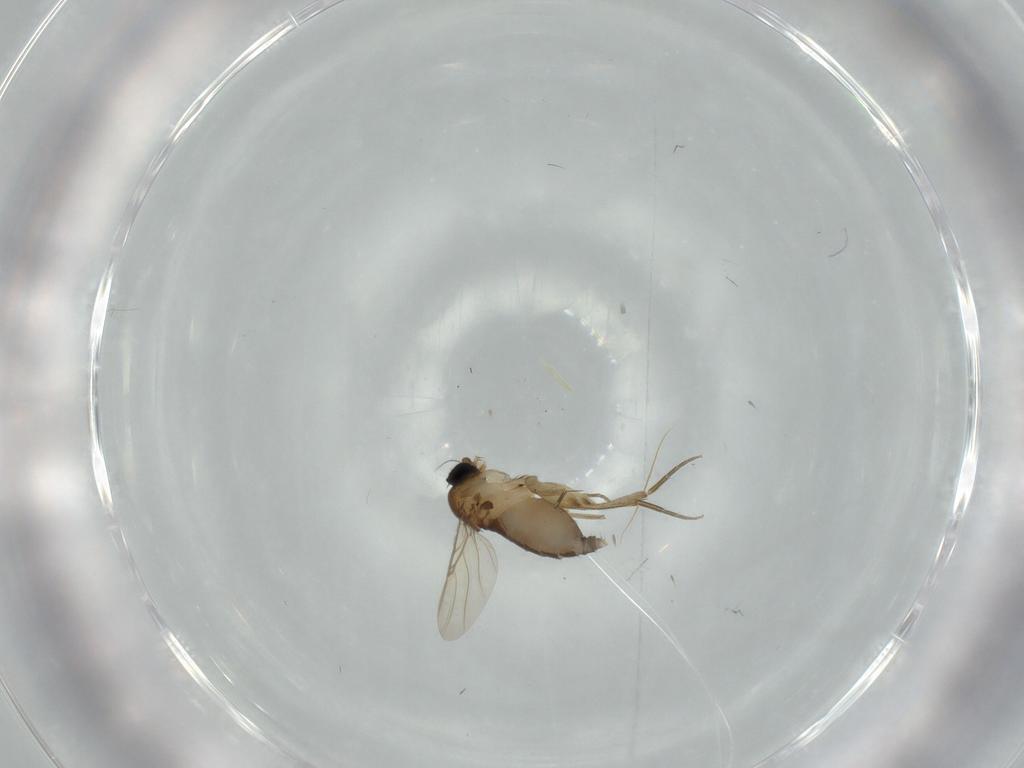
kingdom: Animalia
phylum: Arthropoda
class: Insecta
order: Diptera
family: Phoridae
